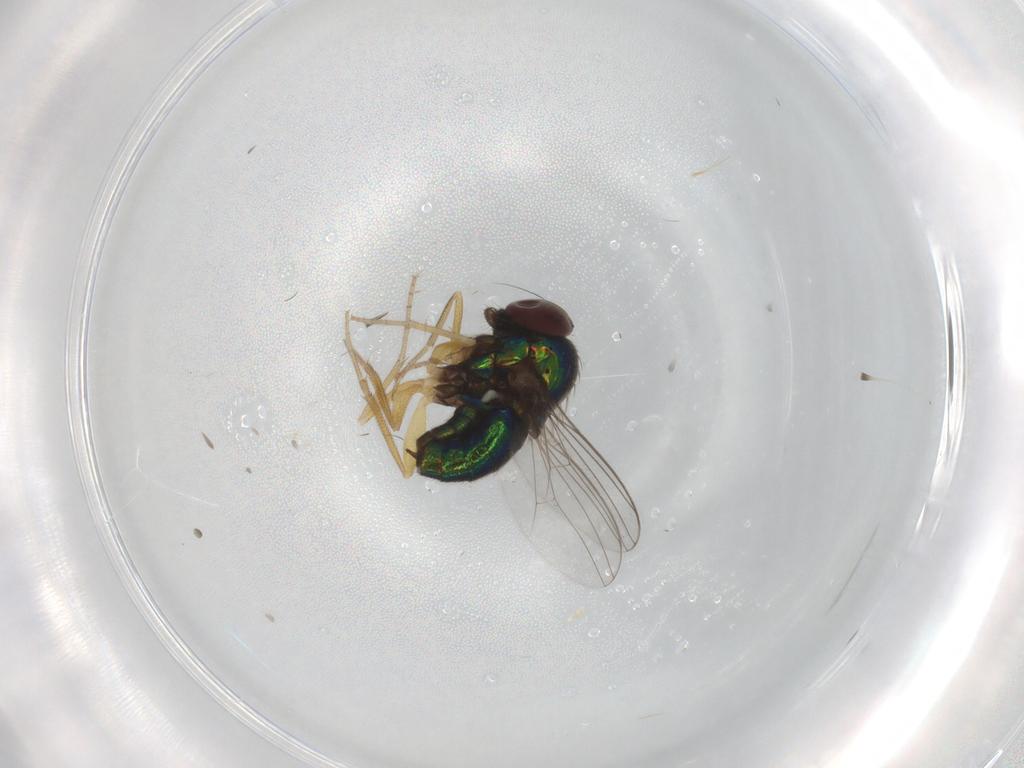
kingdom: Animalia
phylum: Arthropoda
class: Insecta
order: Diptera
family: Dolichopodidae
